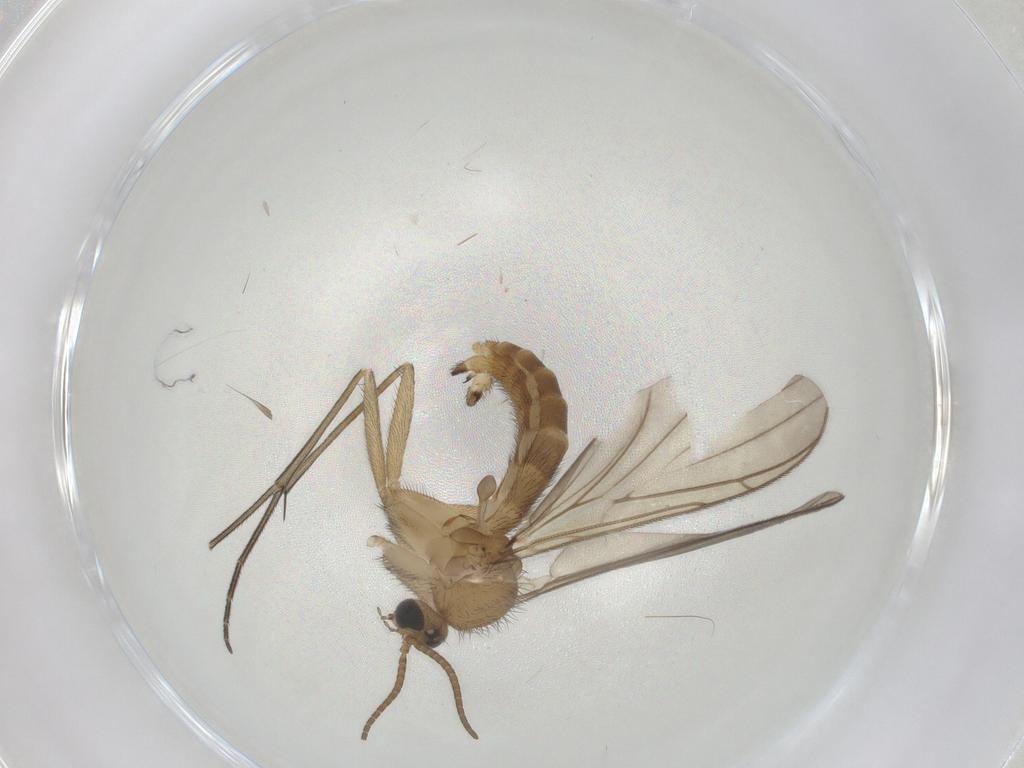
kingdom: Animalia
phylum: Arthropoda
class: Insecta
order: Diptera
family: Keroplatidae
